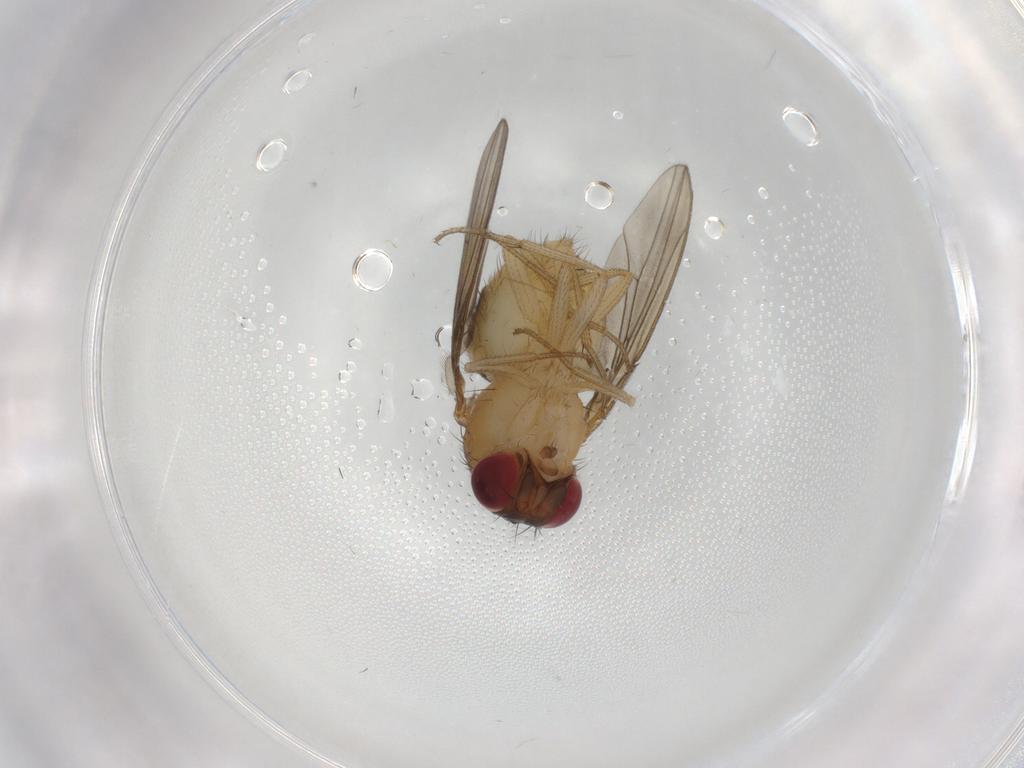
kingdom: Animalia
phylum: Arthropoda
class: Insecta
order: Diptera
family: Drosophilidae
